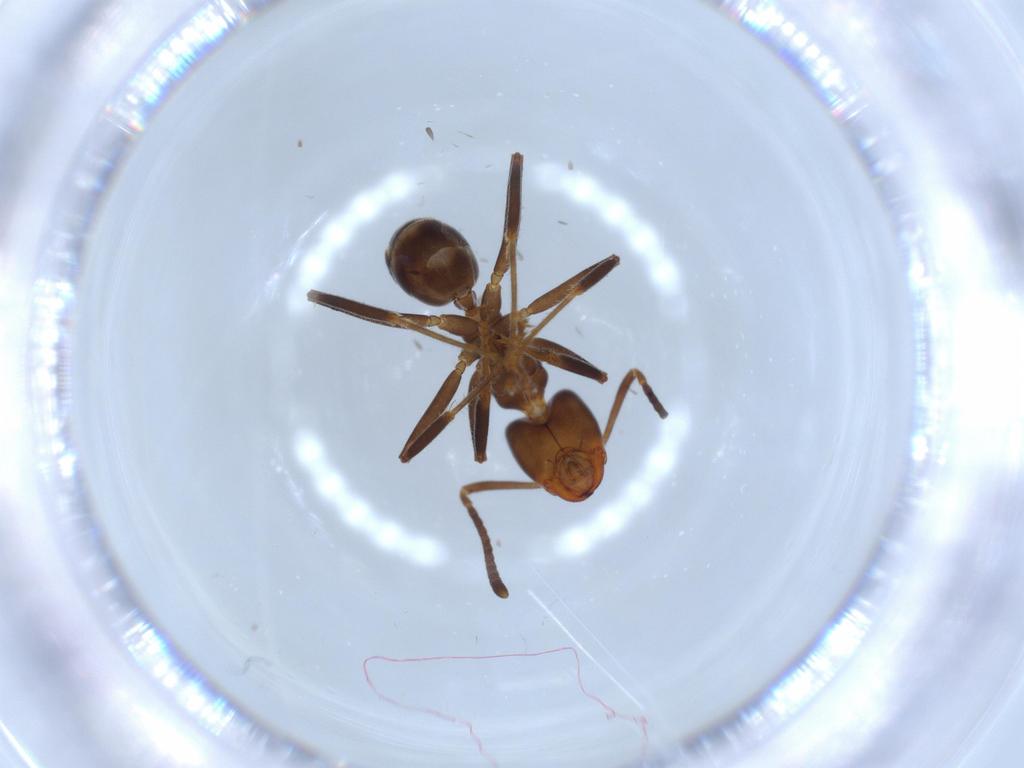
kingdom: Animalia
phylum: Arthropoda
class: Insecta
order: Hymenoptera
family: Formicidae
